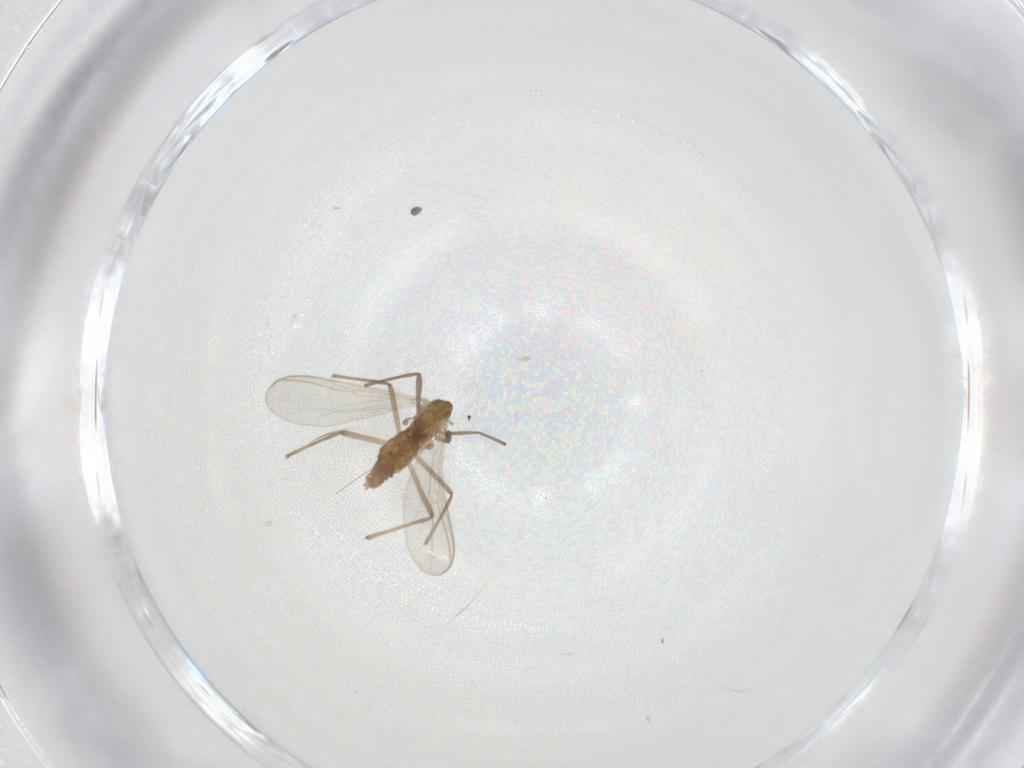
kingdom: Animalia
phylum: Arthropoda
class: Insecta
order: Diptera
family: Chironomidae
